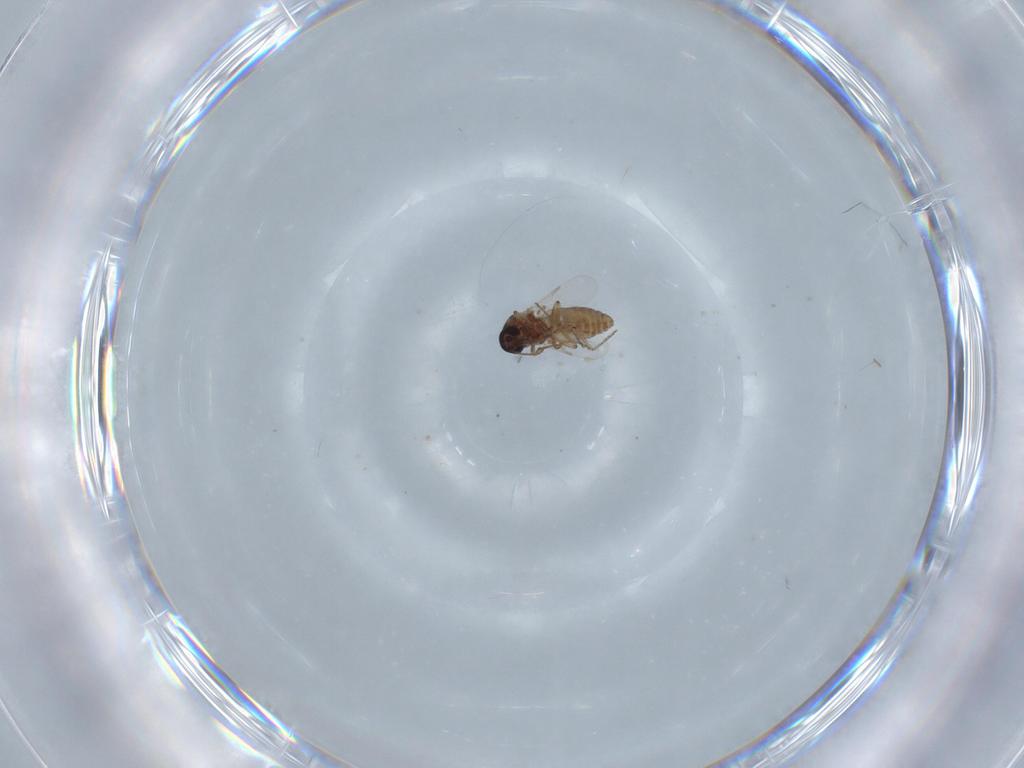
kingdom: Animalia
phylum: Arthropoda
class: Insecta
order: Diptera
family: Ceratopogonidae
